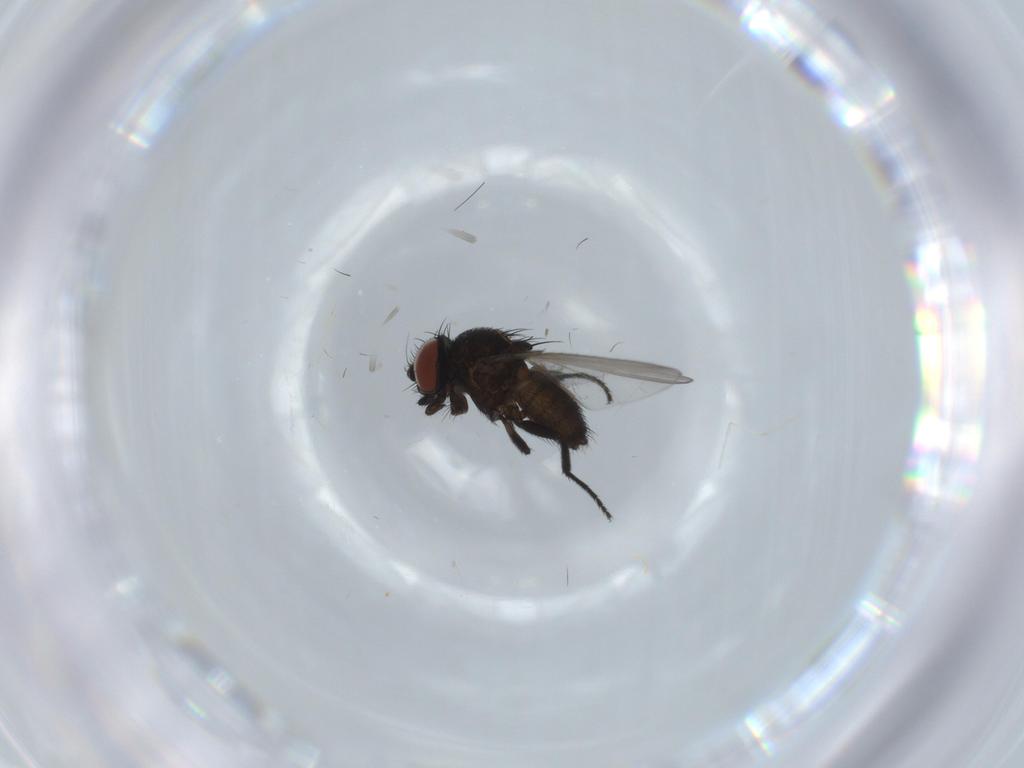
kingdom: Animalia
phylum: Arthropoda
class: Insecta
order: Diptera
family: Milichiidae
